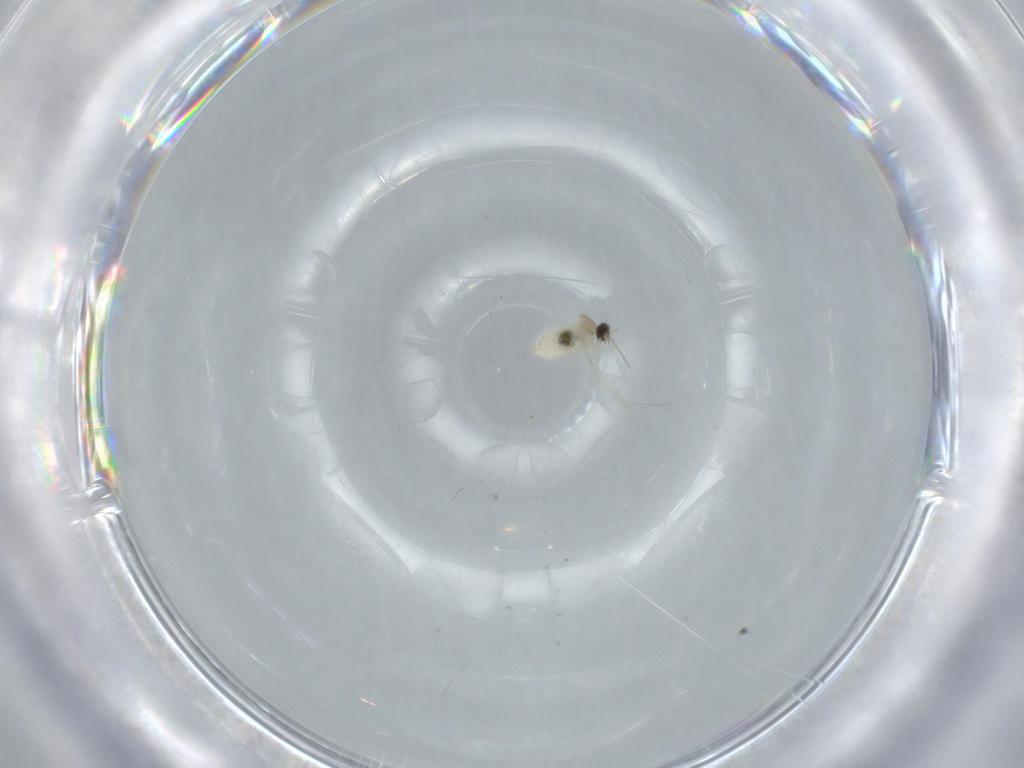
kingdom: Animalia
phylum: Arthropoda
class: Insecta
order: Diptera
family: Cecidomyiidae
